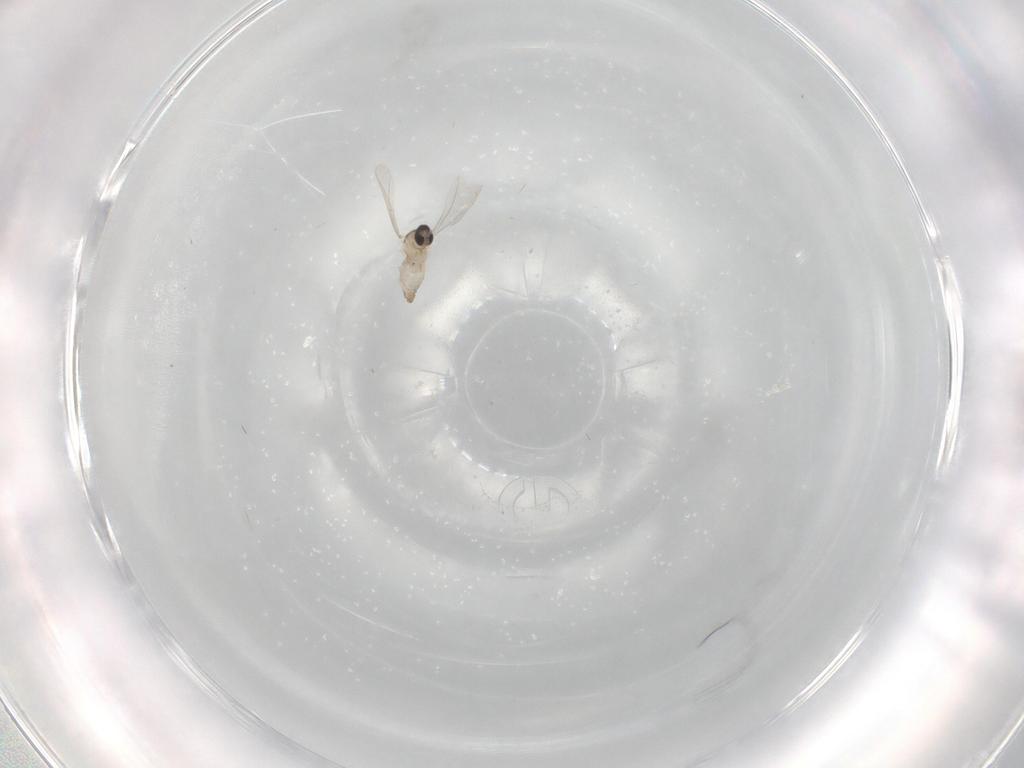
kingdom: Animalia
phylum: Arthropoda
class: Insecta
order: Diptera
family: Cecidomyiidae
